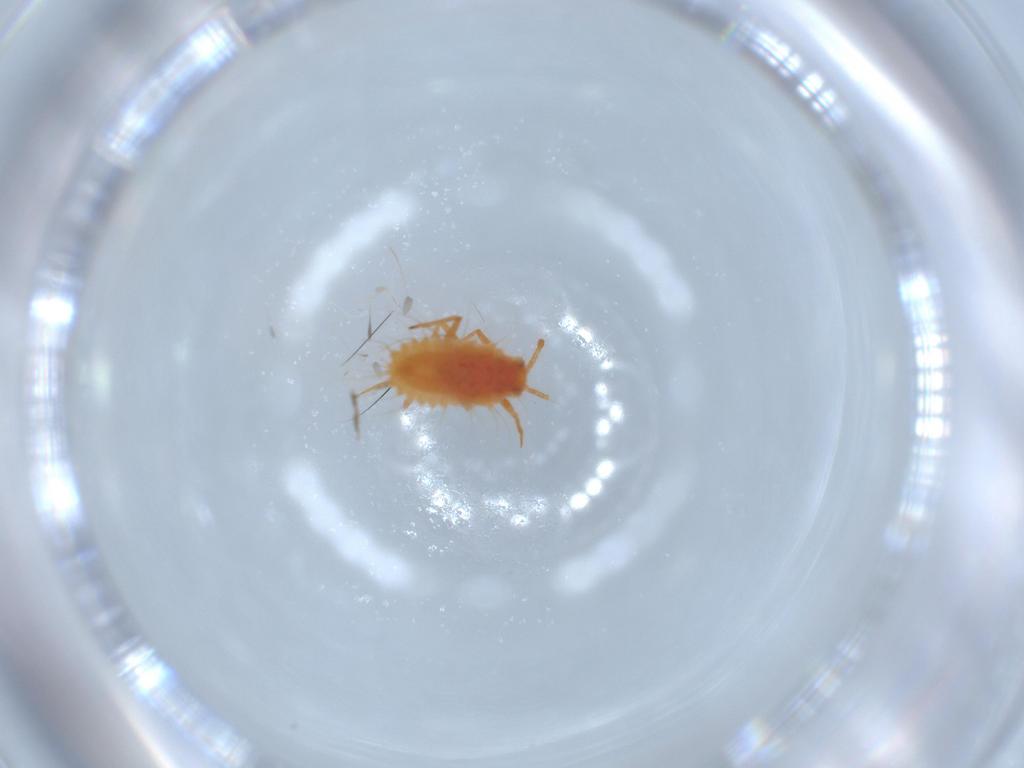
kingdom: Animalia
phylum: Arthropoda
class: Insecta
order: Hemiptera
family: Monophlebidae
